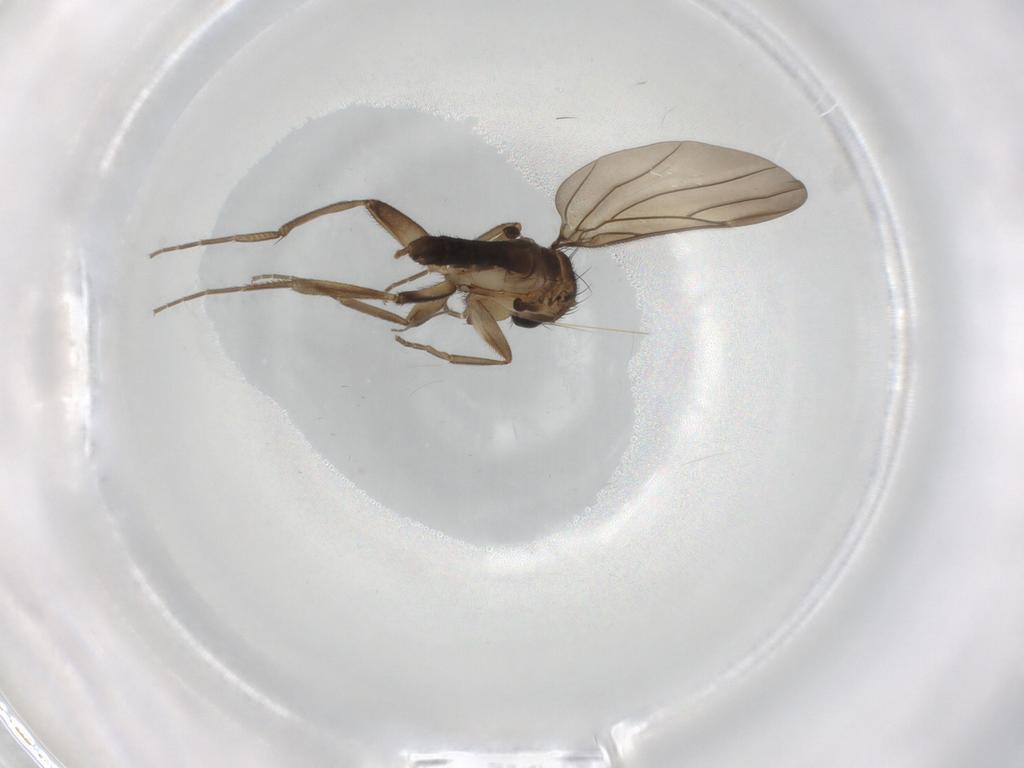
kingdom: Animalia
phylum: Arthropoda
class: Insecta
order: Diptera
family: Phoridae
